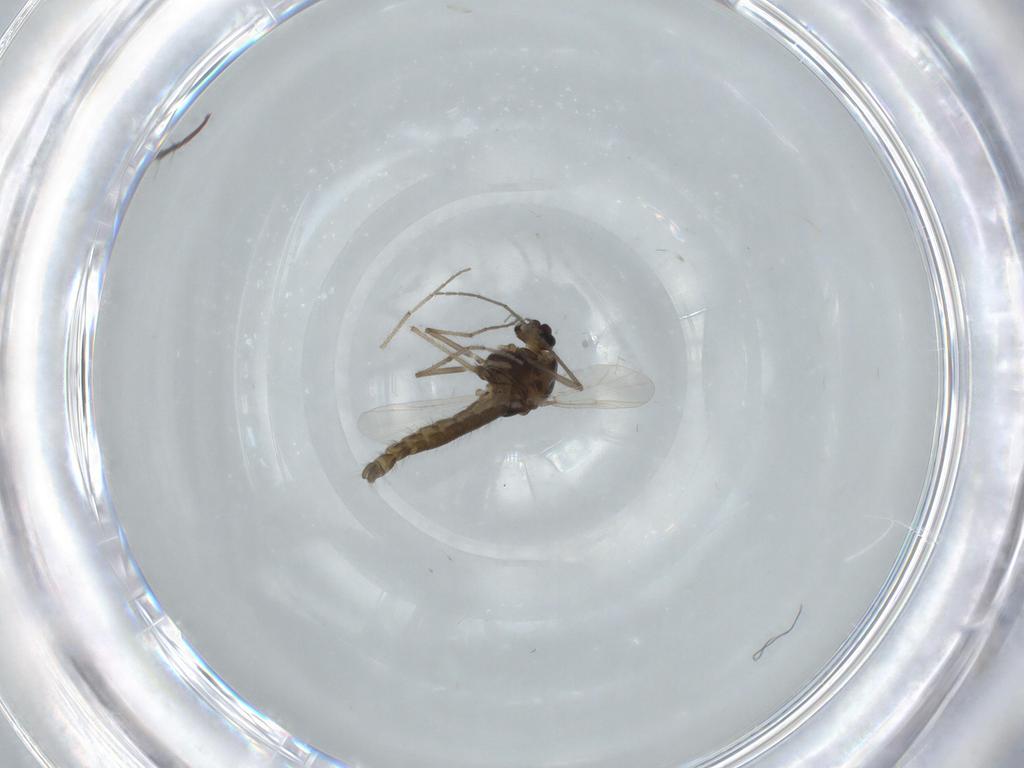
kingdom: Animalia
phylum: Arthropoda
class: Insecta
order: Diptera
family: Chironomidae
